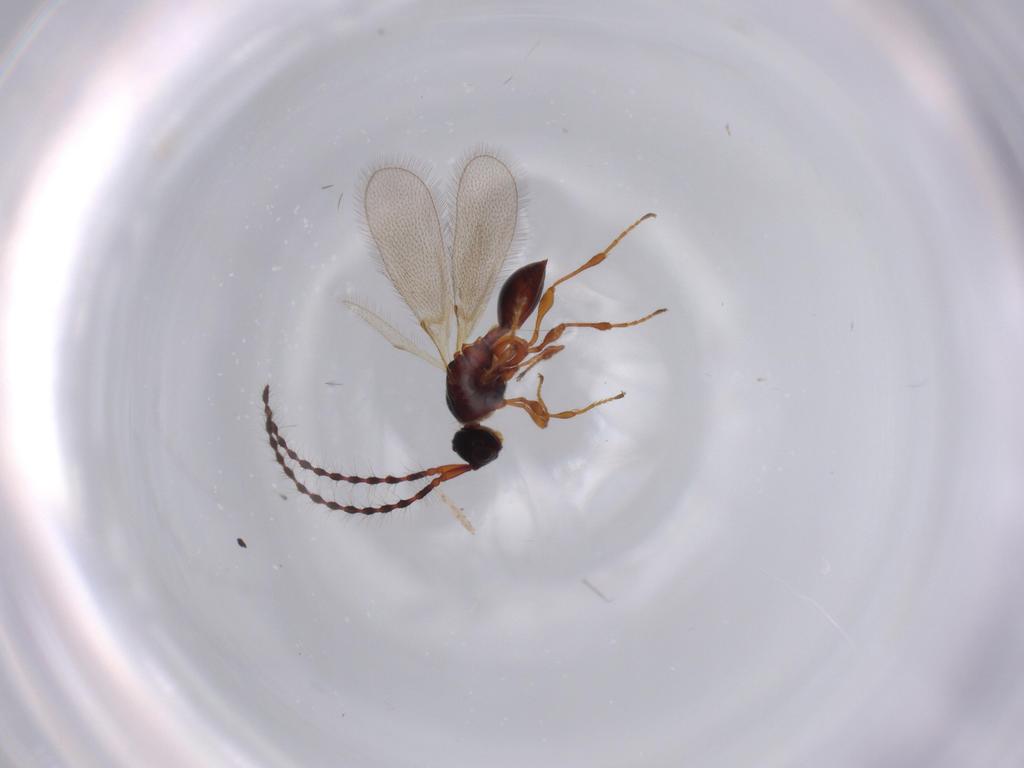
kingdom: Animalia
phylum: Arthropoda
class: Insecta
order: Hymenoptera
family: Diapriidae
